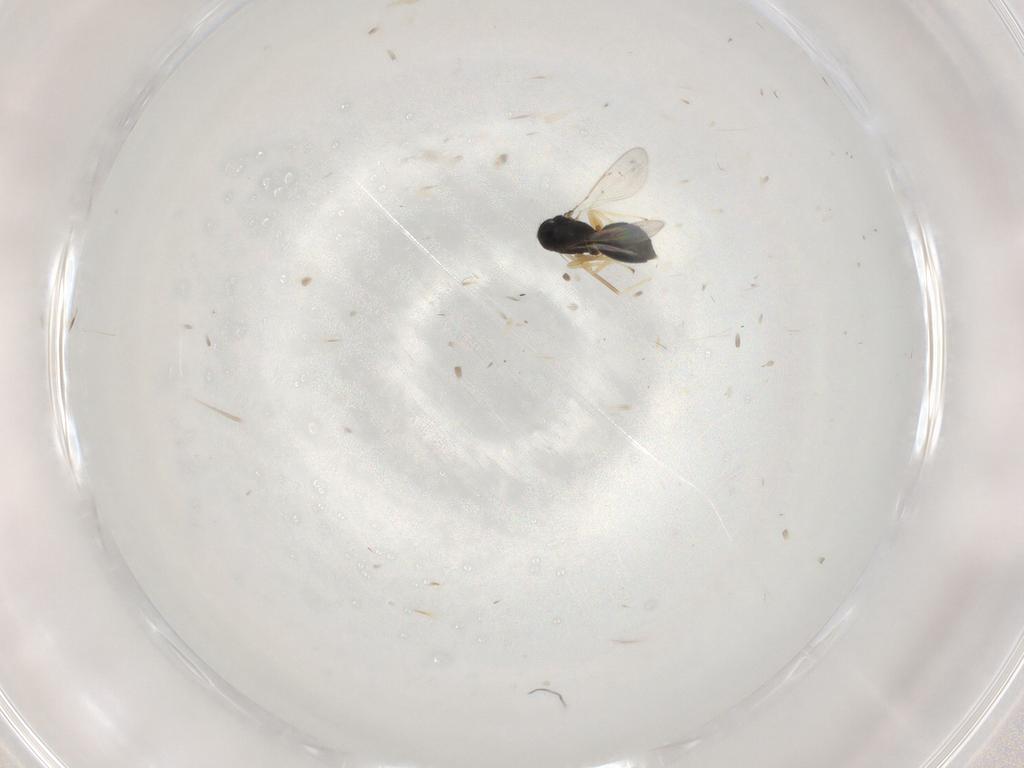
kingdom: Animalia
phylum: Arthropoda
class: Insecta
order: Hymenoptera
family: Eulophidae
